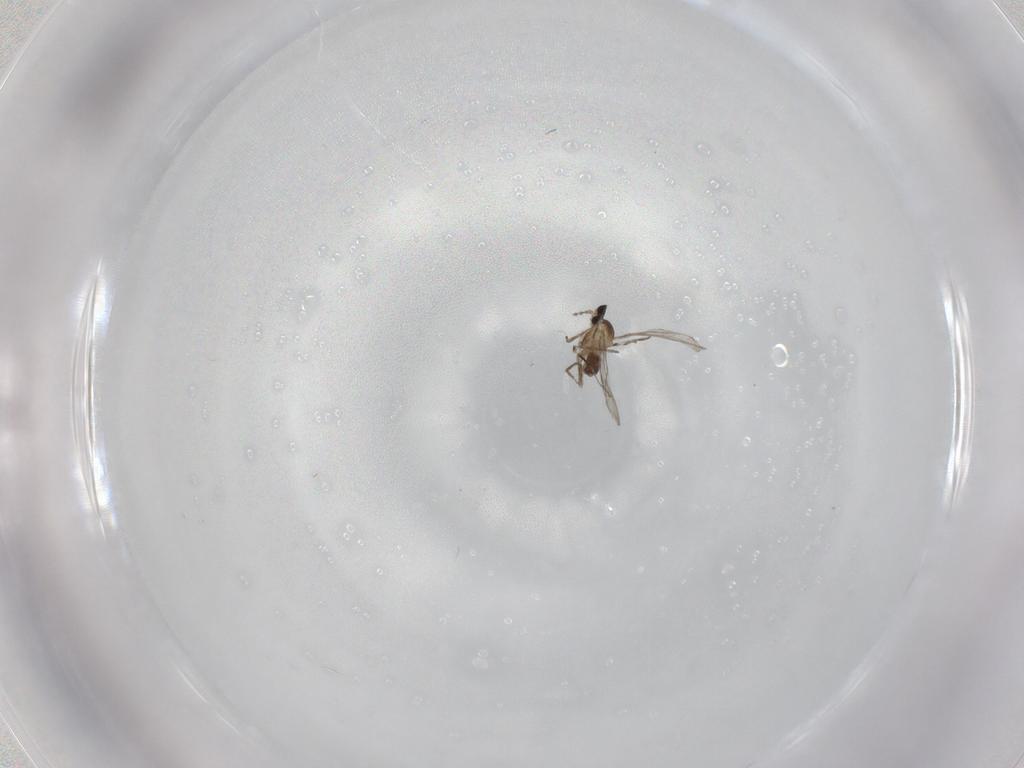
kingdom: Animalia
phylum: Arthropoda
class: Insecta
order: Diptera
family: Cecidomyiidae
